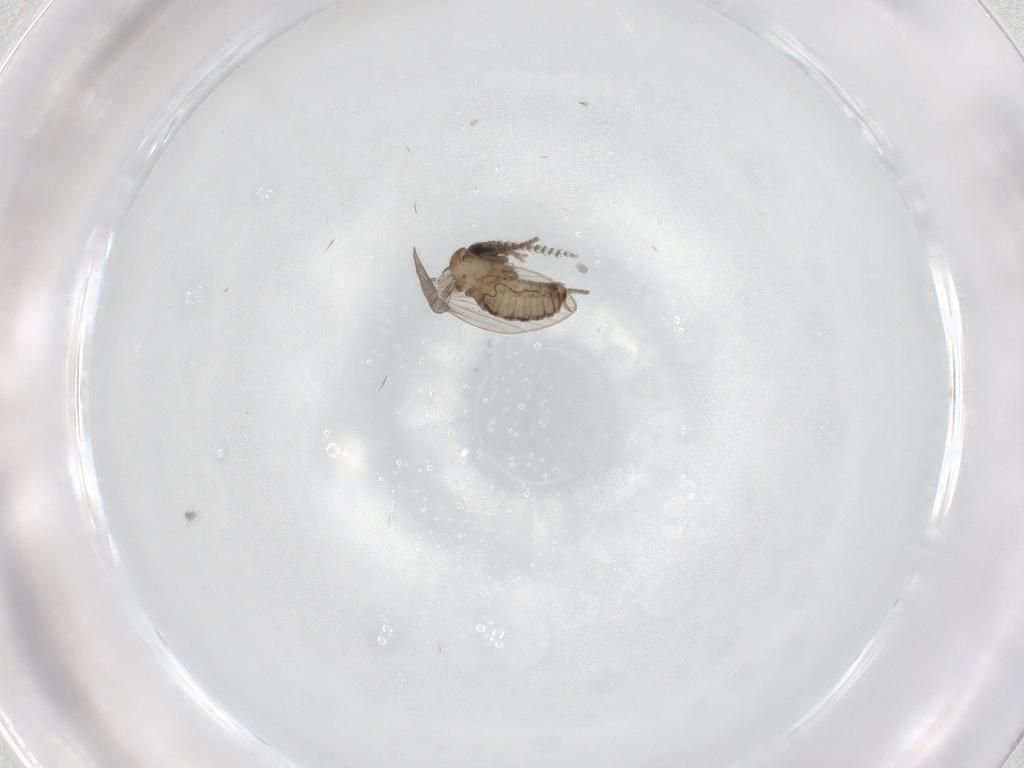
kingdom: Animalia
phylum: Arthropoda
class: Insecta
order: Diptera
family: Psychodidae
